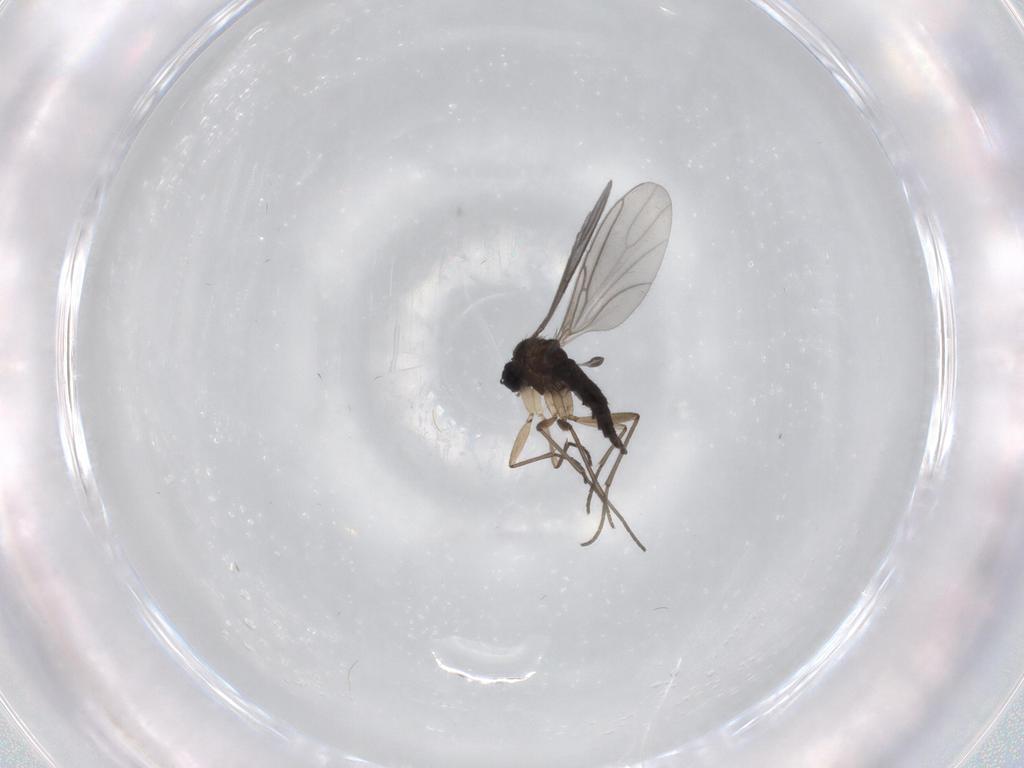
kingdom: Animalia
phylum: Arthropoda
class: Insecta
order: Diptera
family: Sciaridae
